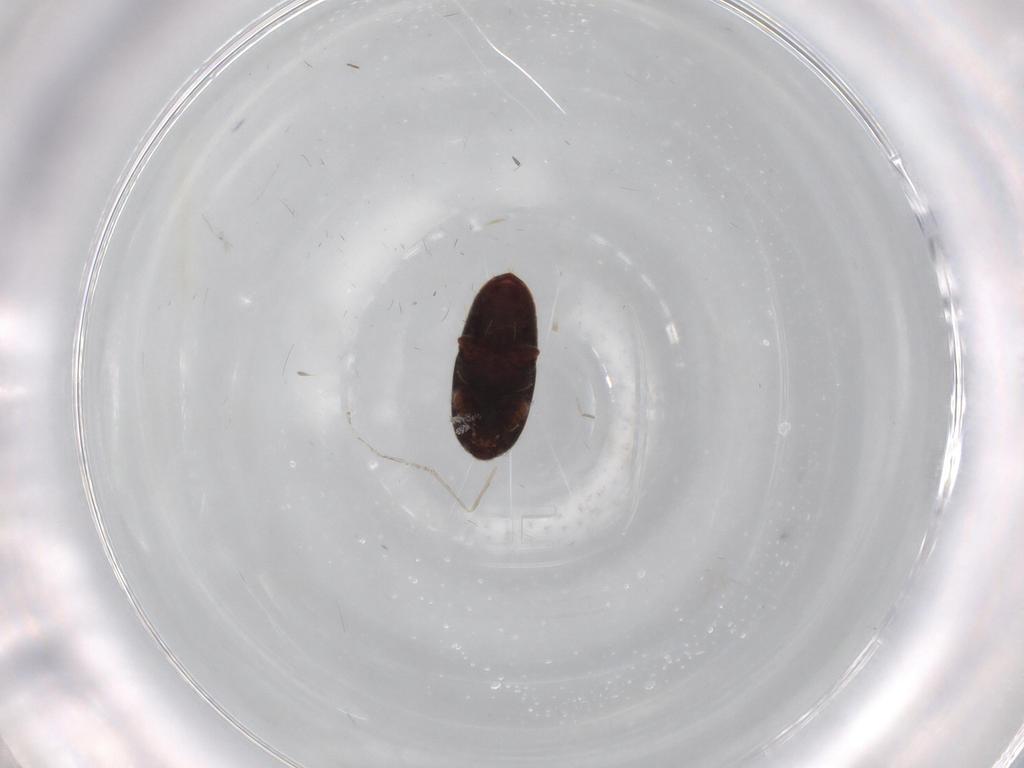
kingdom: Animalia
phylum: Arthropoda
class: Insecta
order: Coleoptera
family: Throscidae
